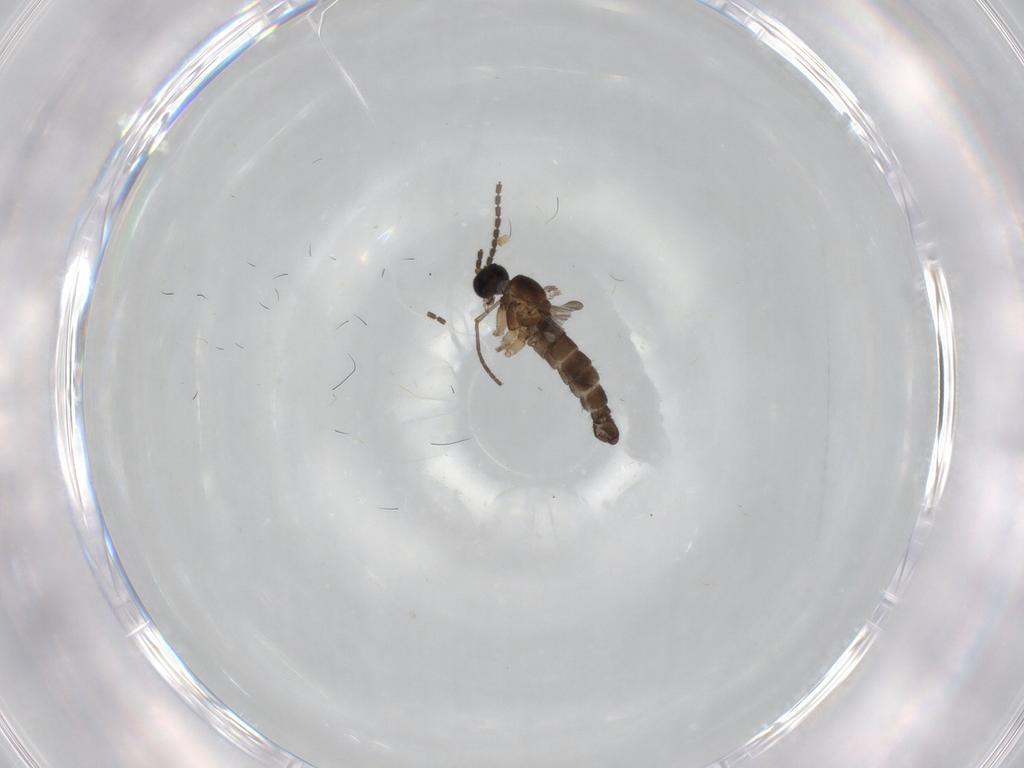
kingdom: Animalia
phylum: Arthropoda
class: Insecta
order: Diptera
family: Sciaridae
